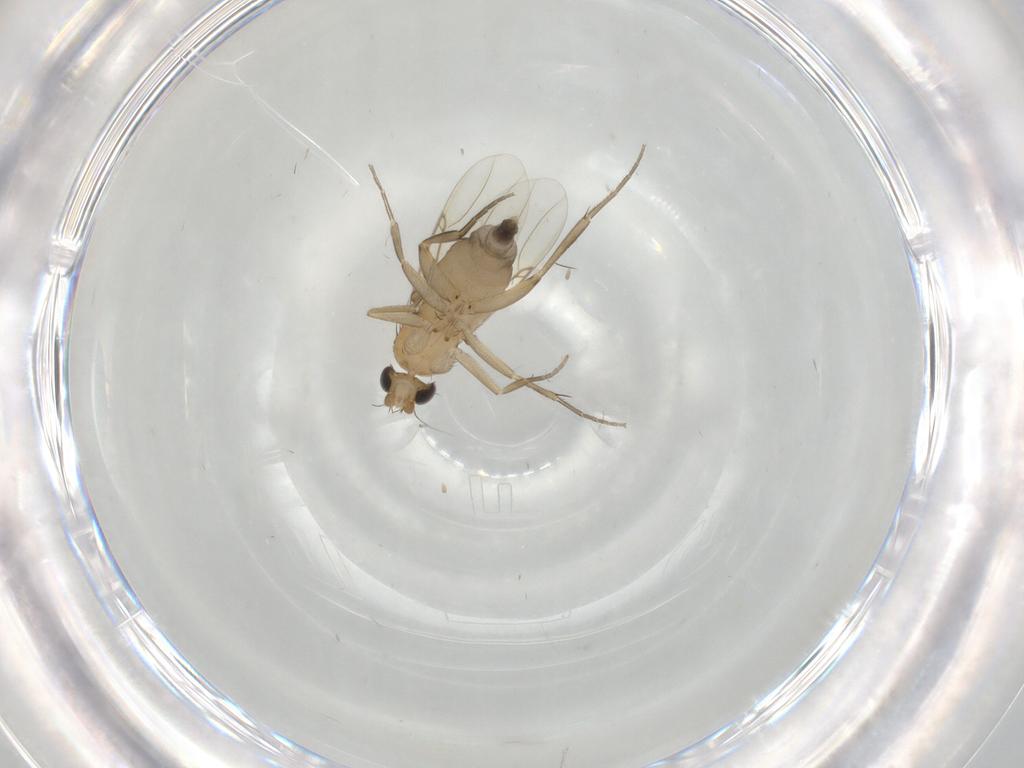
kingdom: Animalia
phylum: Arthropoda
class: Insecta
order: Diptera
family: Phoridae
